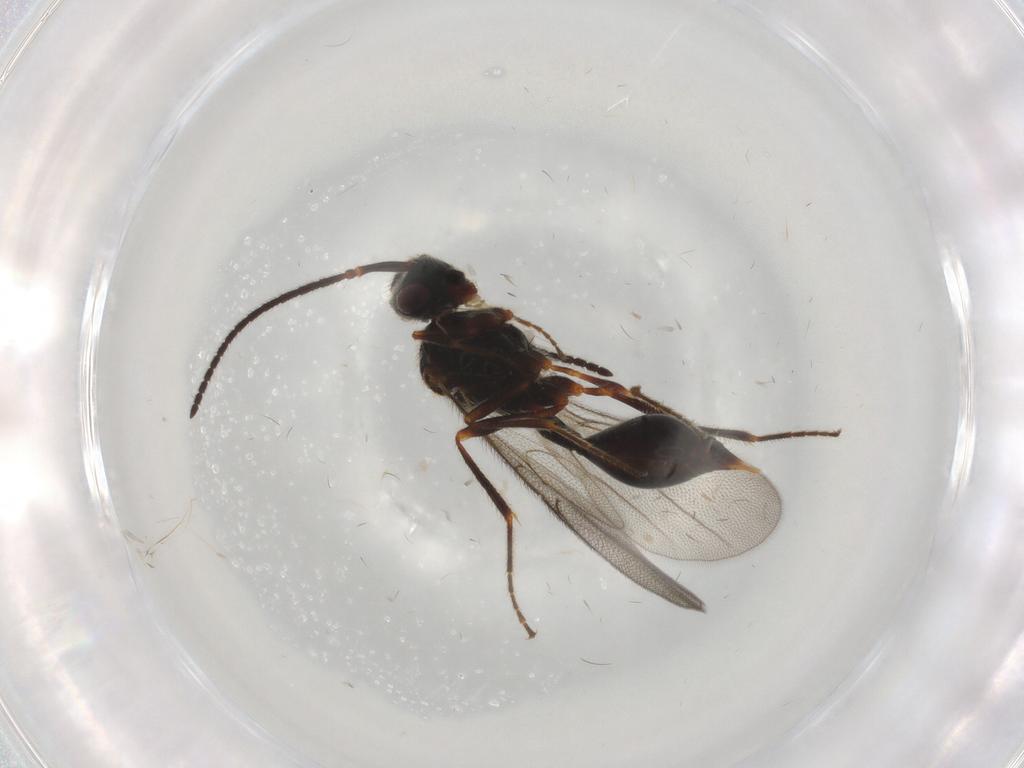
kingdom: Animalia
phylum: Arthropoda
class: Insecta
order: Hymenoptera
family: Diapriidae
